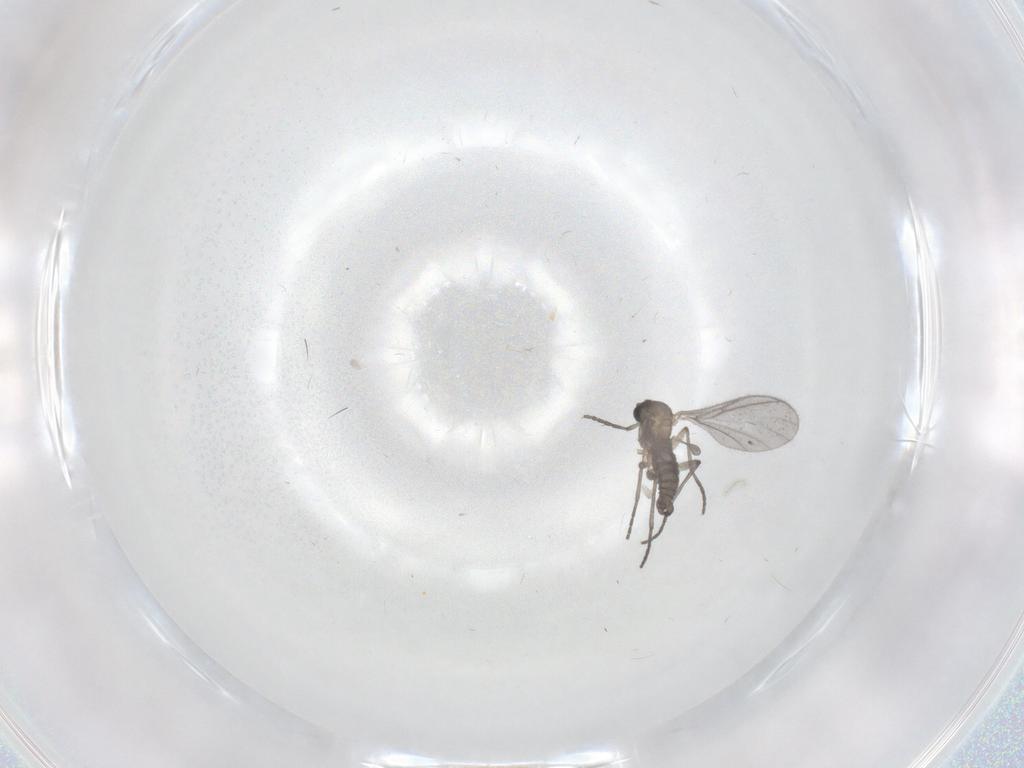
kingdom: Animalia
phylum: Arthropoda
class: Insecta
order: Diptera
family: Sciaridae
